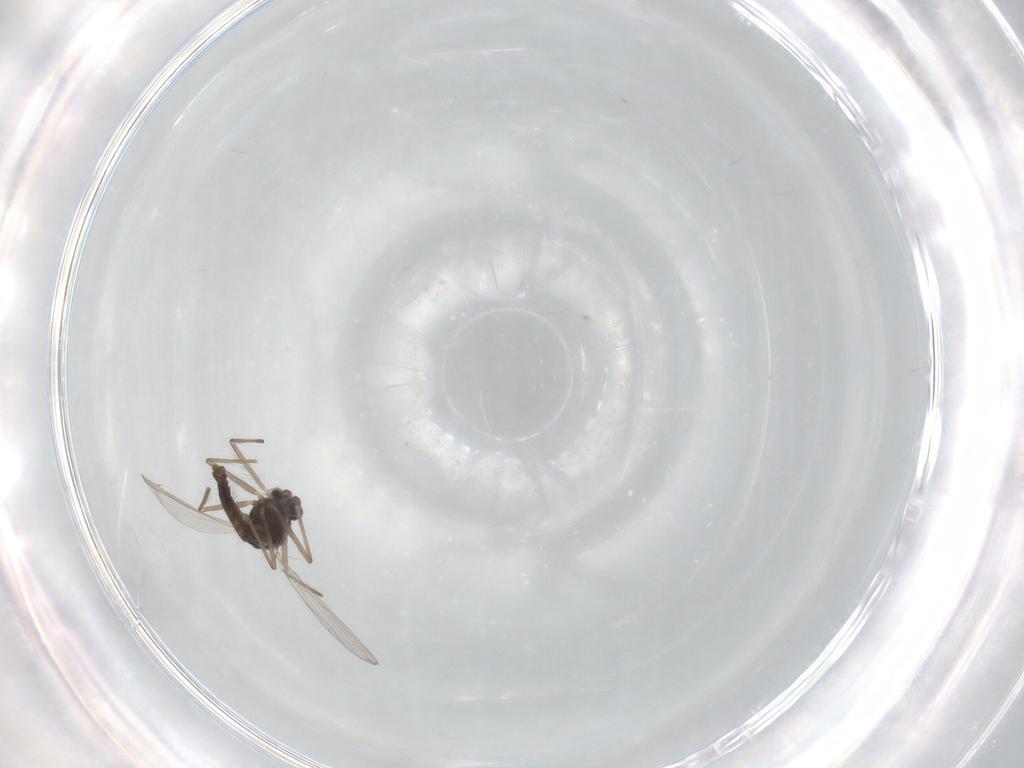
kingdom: Animalia
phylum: Arthropoda
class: Insecta
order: Diptera
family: Chironomidae
